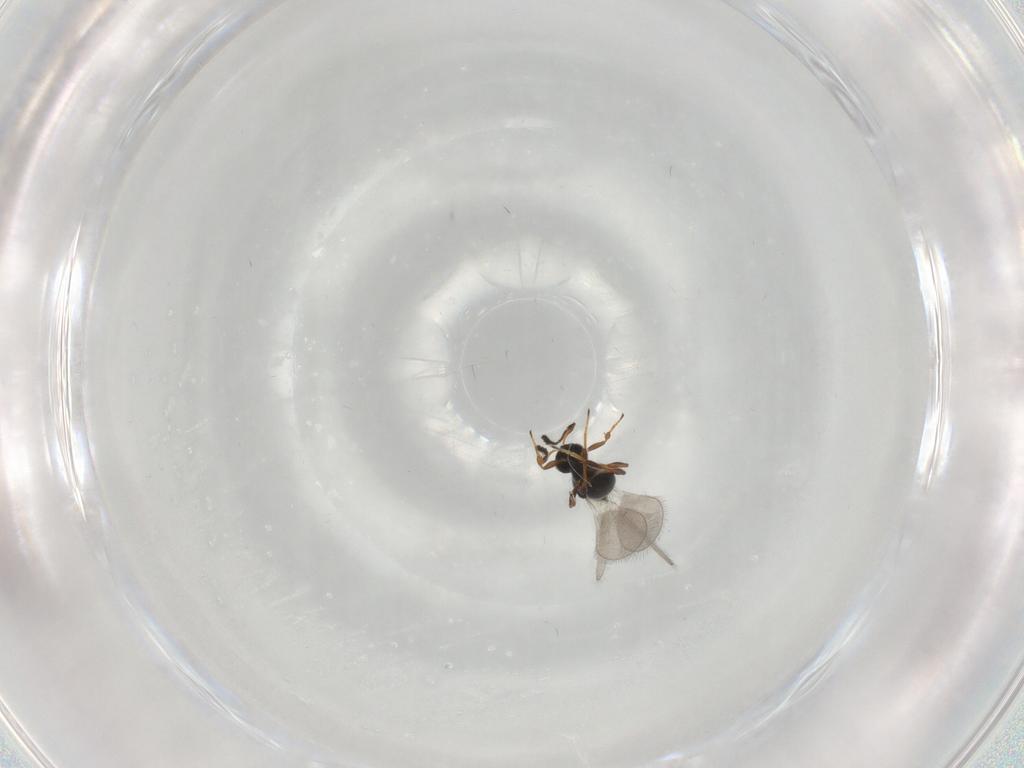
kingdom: Animalia
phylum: Arthropoda
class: Insecta
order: Hymenoptera
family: Platygastridae
